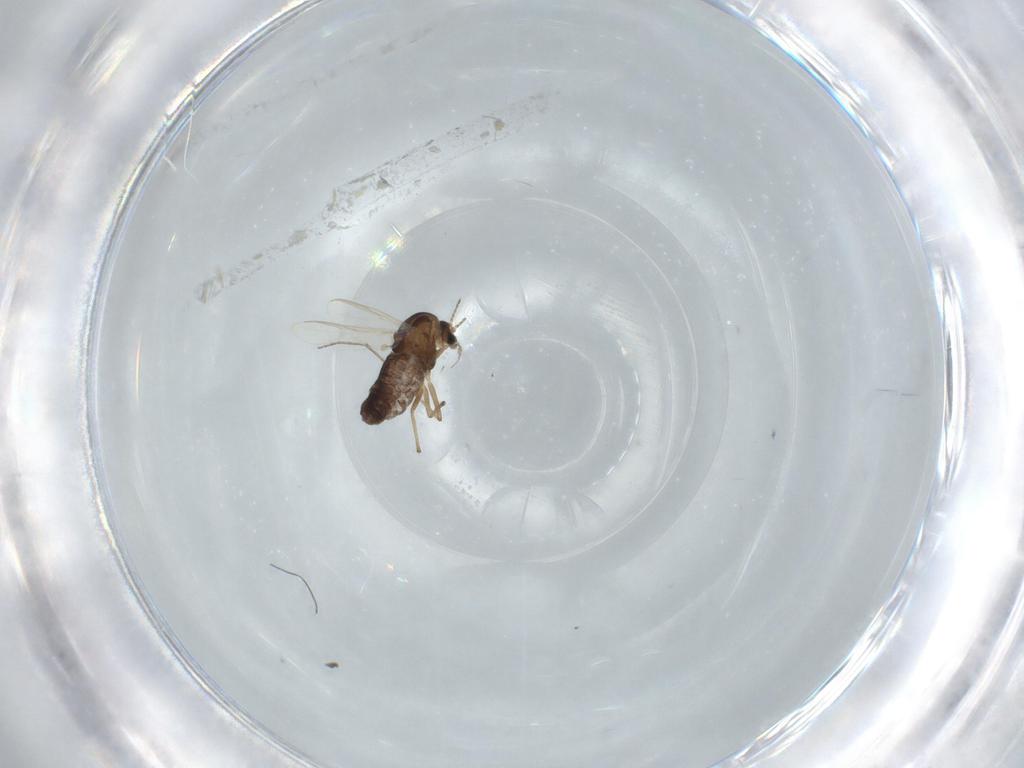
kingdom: Animalia
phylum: Arthropoda
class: Insecta
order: Diptera
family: Chironomidae
